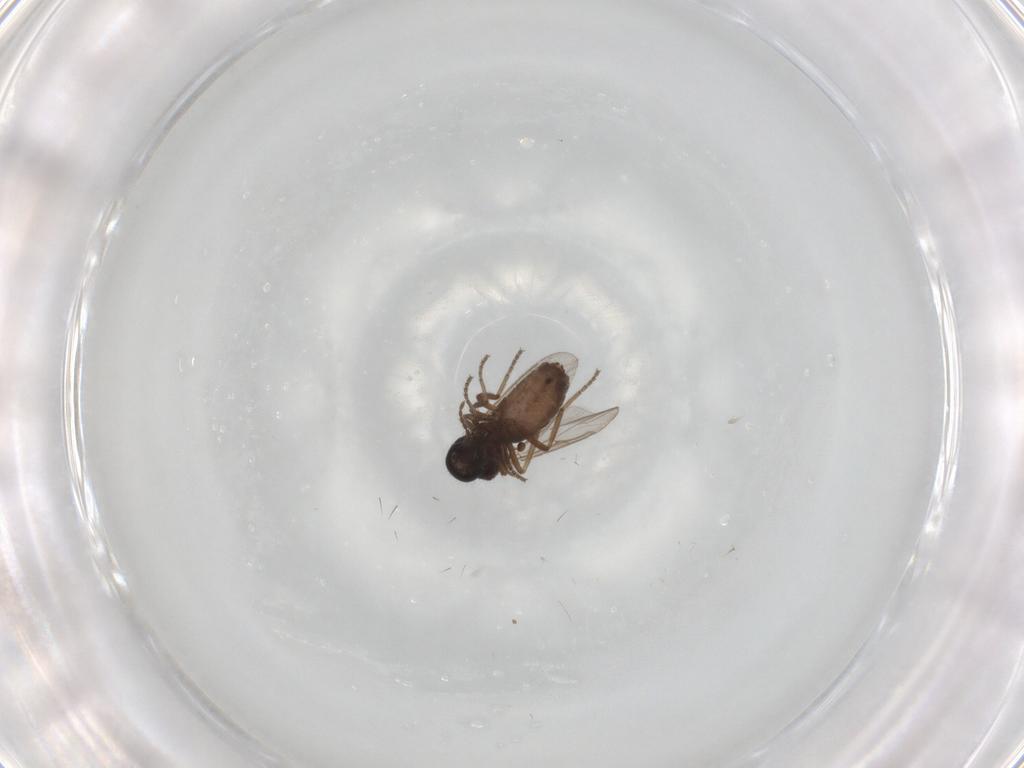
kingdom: Animalia
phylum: Arthropoda
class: Insecta
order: Diptera
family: Ceratopogonidae
